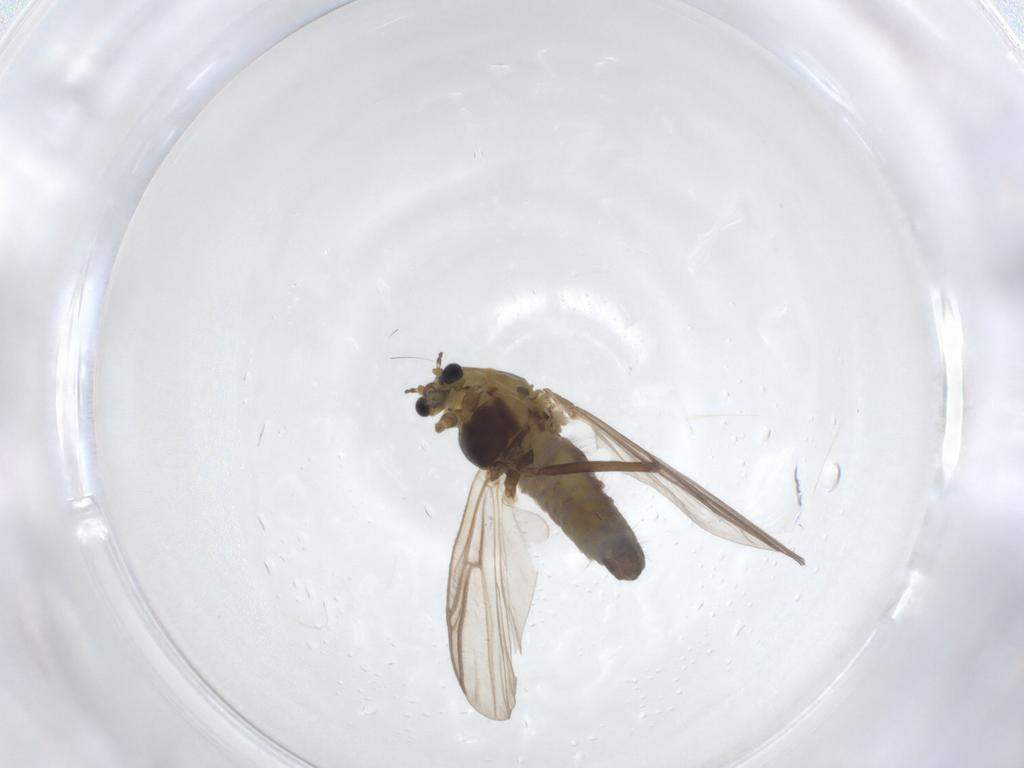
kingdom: Animalia
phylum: Arthropoda
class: Insecta
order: Diptera
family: Chironomidae
